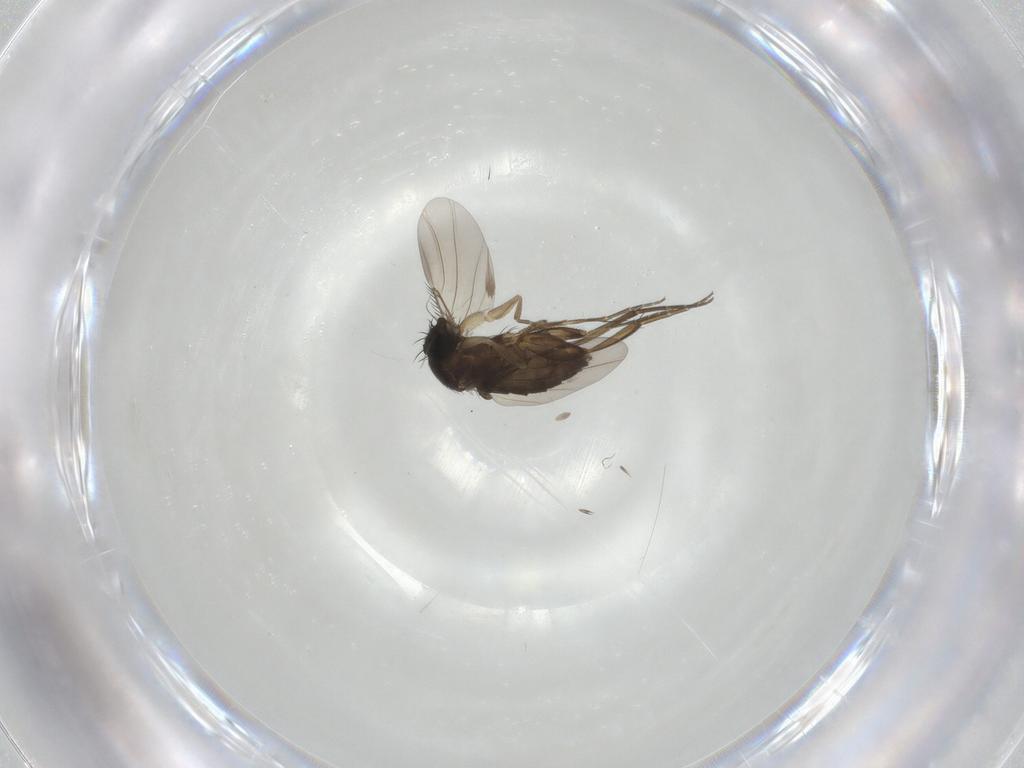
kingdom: Animalia
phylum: Arthropoda
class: Insecta
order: Diptera
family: Phoridae
